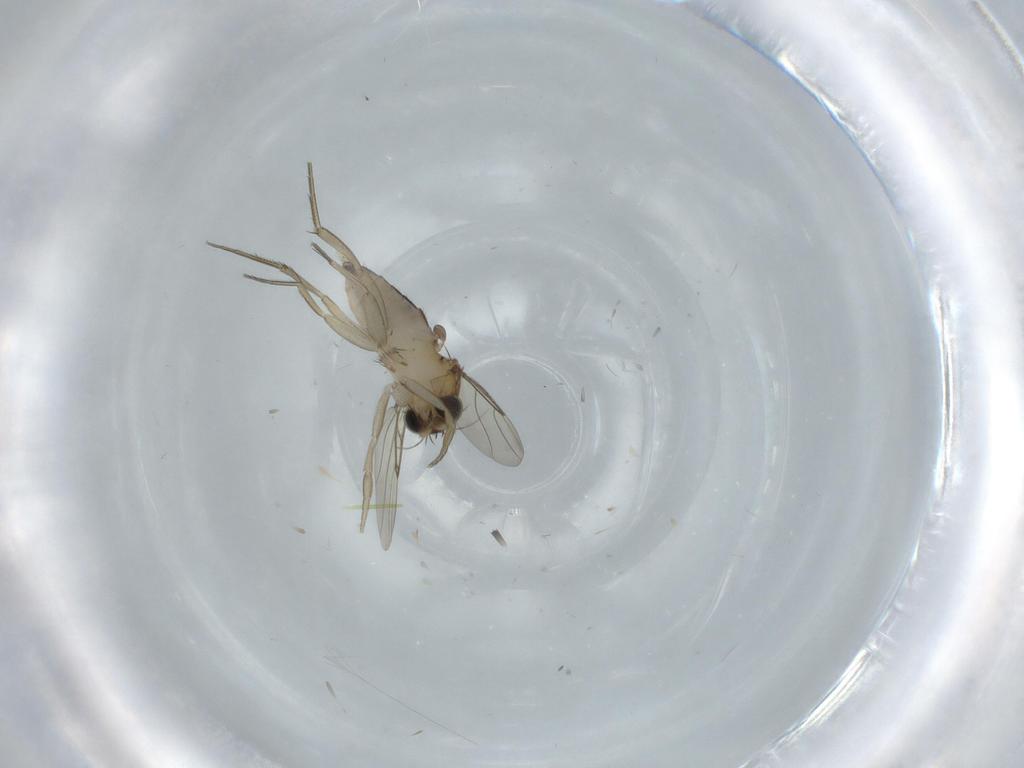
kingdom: Animalia
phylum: Arthropoda
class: Insecta
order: Diptera
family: Phoridae
